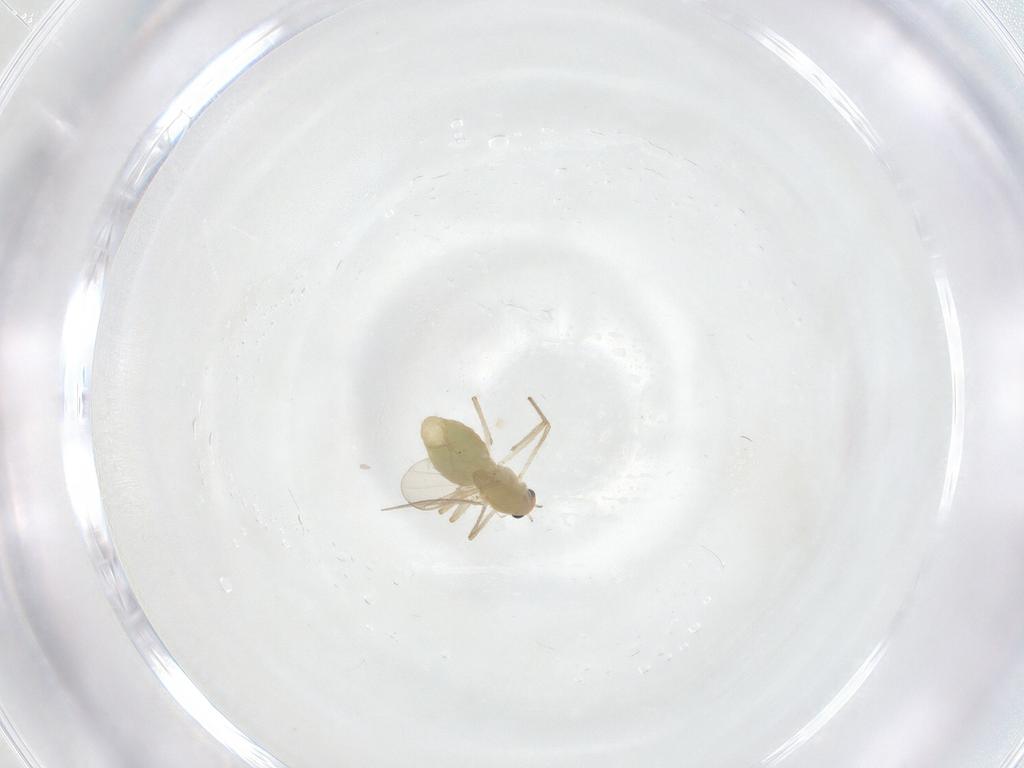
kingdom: Animalia
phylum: Arthropoda
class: Insecta
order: Diptera
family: Chironomidae
